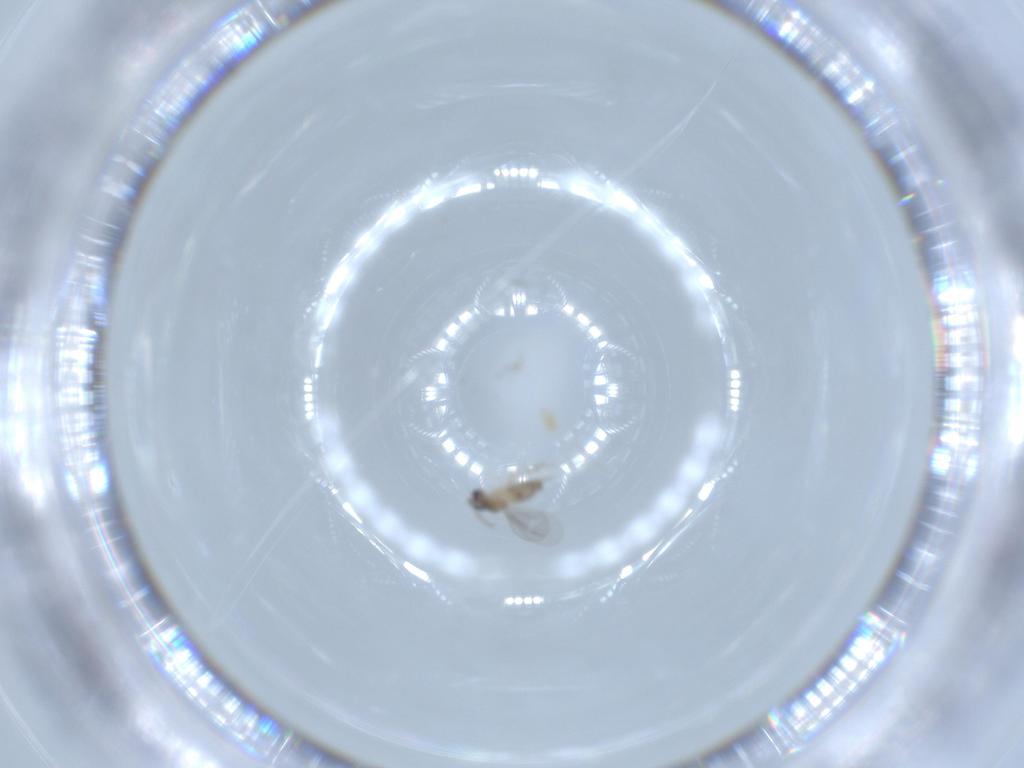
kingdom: Animalia
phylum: Arthropoda
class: Insecta
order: Diptera
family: Cecidomyiidae
